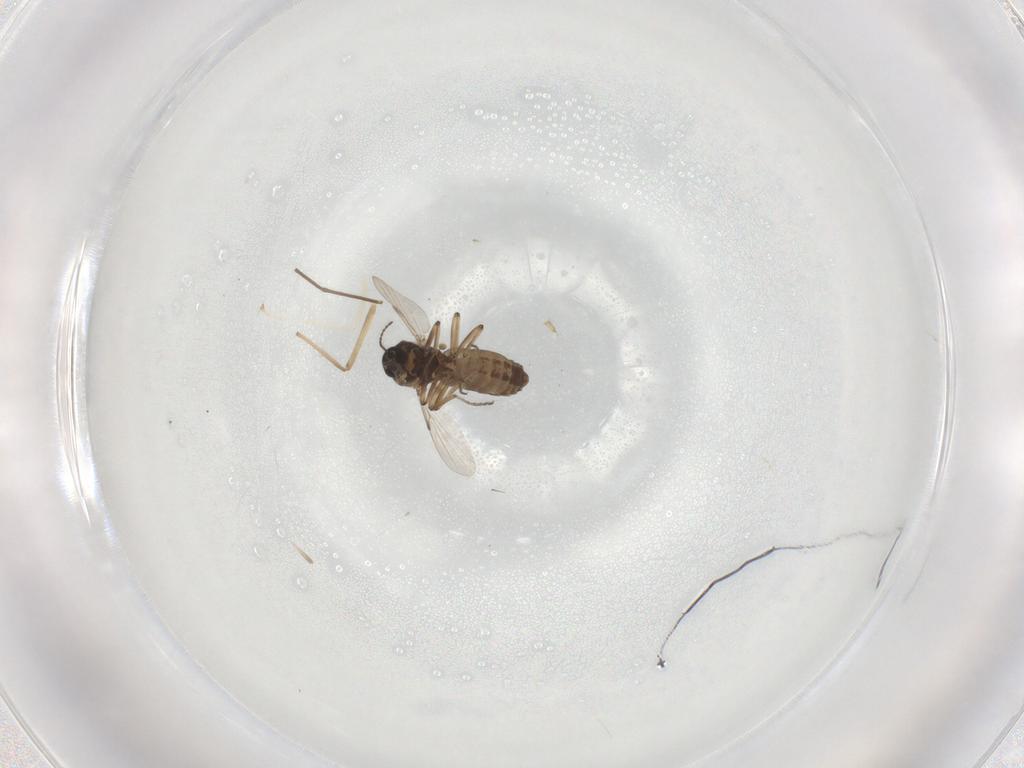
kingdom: Animalia
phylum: Arthropoda
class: Insecta
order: Diptera
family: Ceratopogonidae
